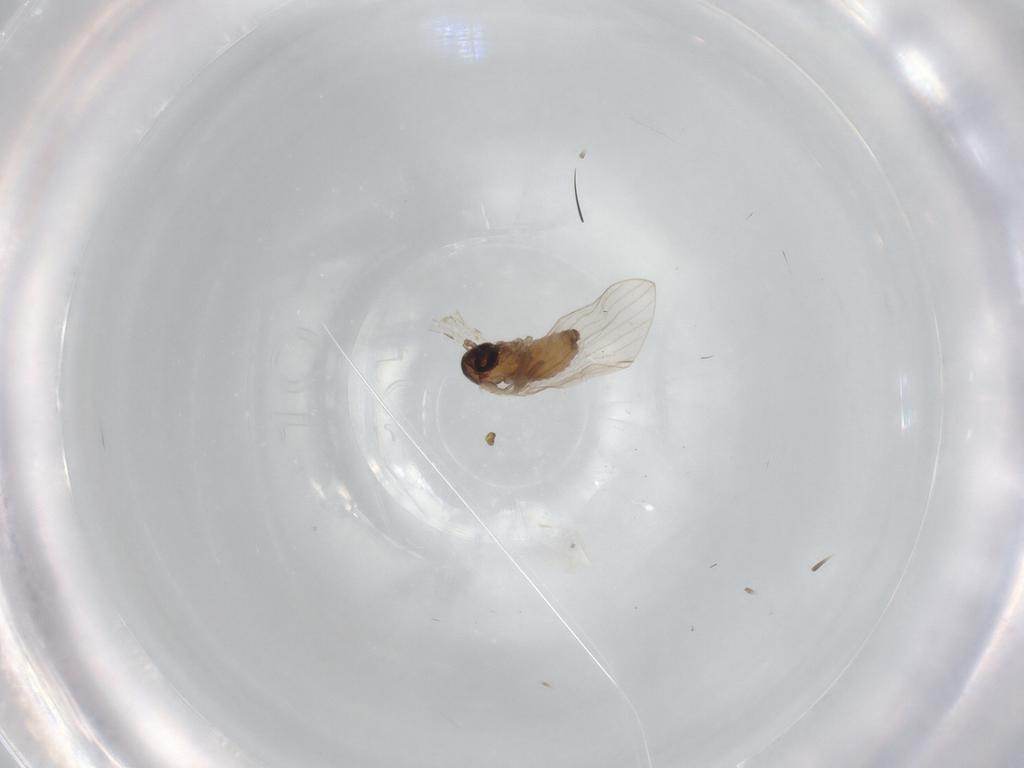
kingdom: Animalia
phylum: Arthropoda
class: Insecta
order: Diptera
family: Psychodidae
